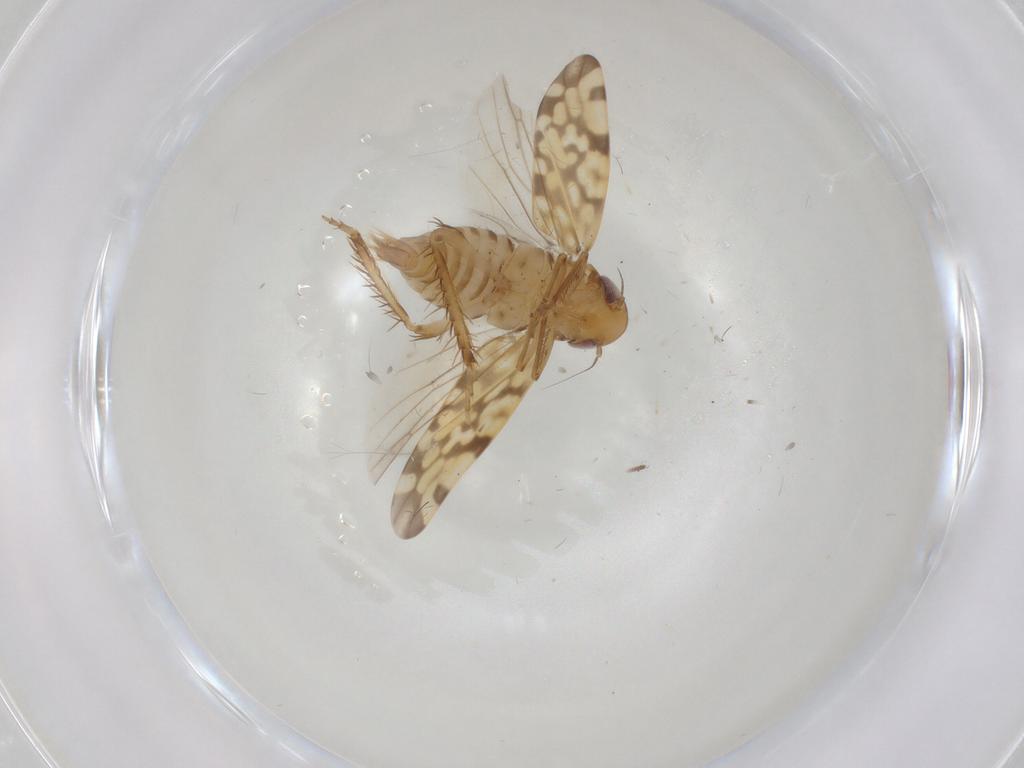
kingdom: Animalia
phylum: Arthropoda
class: Insecta
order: Hemiptera
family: Cicadellidae
